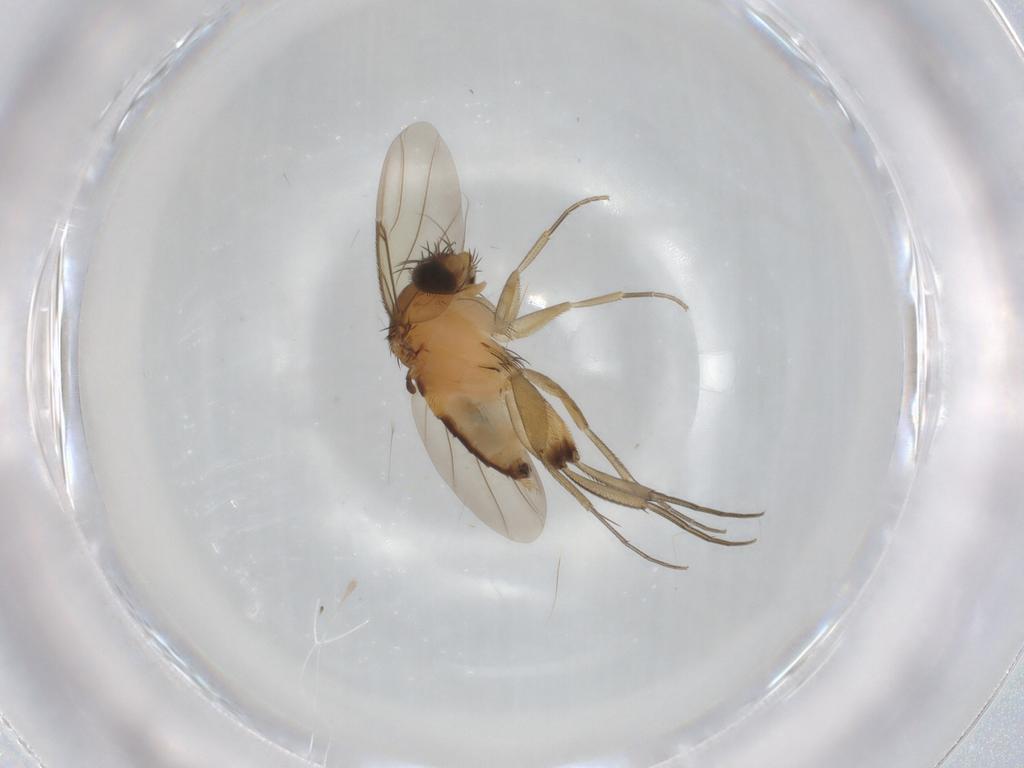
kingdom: Animalia
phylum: Arthropoda
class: Insecta
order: Diptera
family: Phoridae
